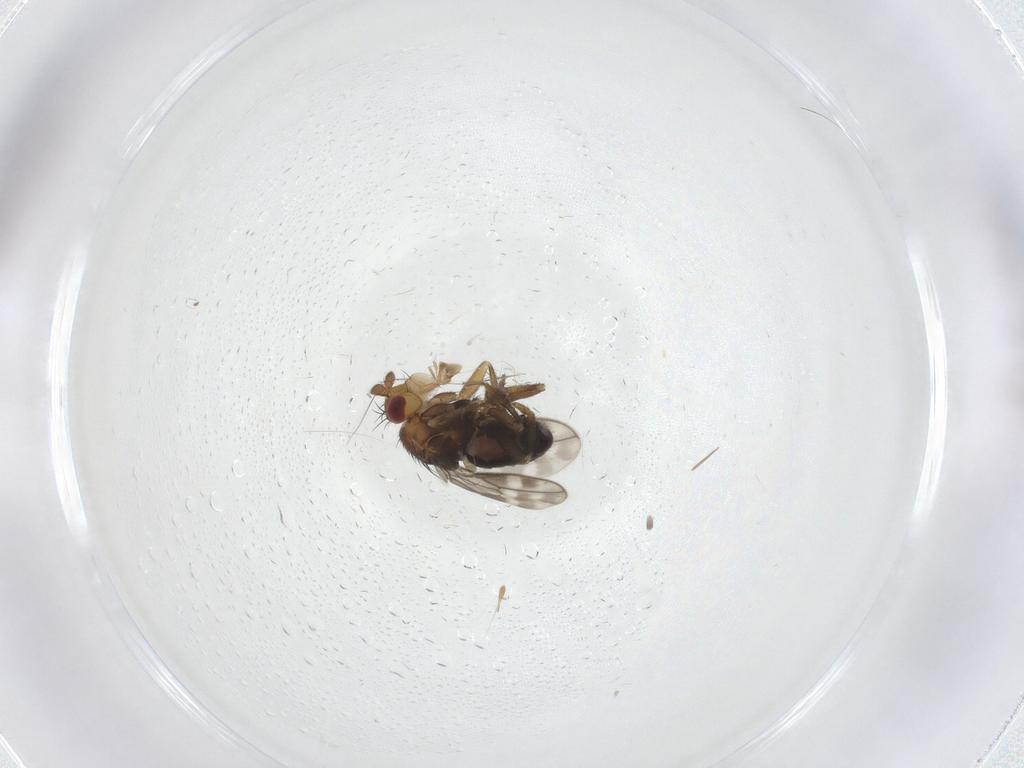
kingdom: Animalia
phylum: Arthropoda
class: Insecta
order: Diptera
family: Sphaeroceridae
